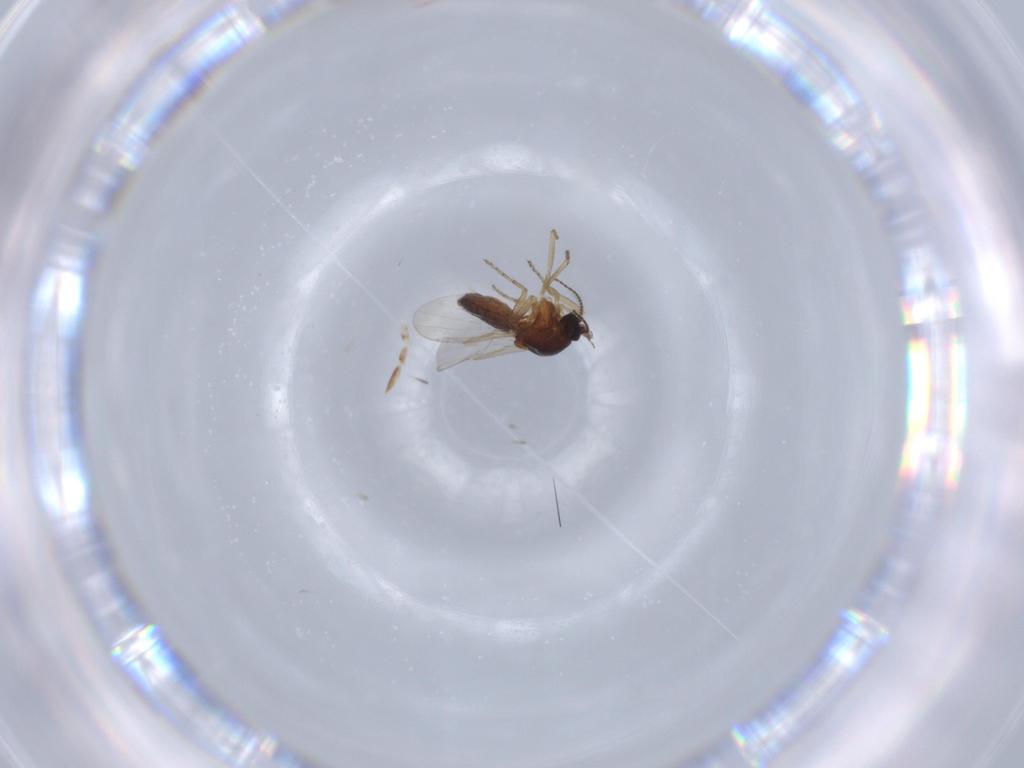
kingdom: Animalia
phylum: Arthropoda
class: Insecta
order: Diptera
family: Ceratopogonidae
